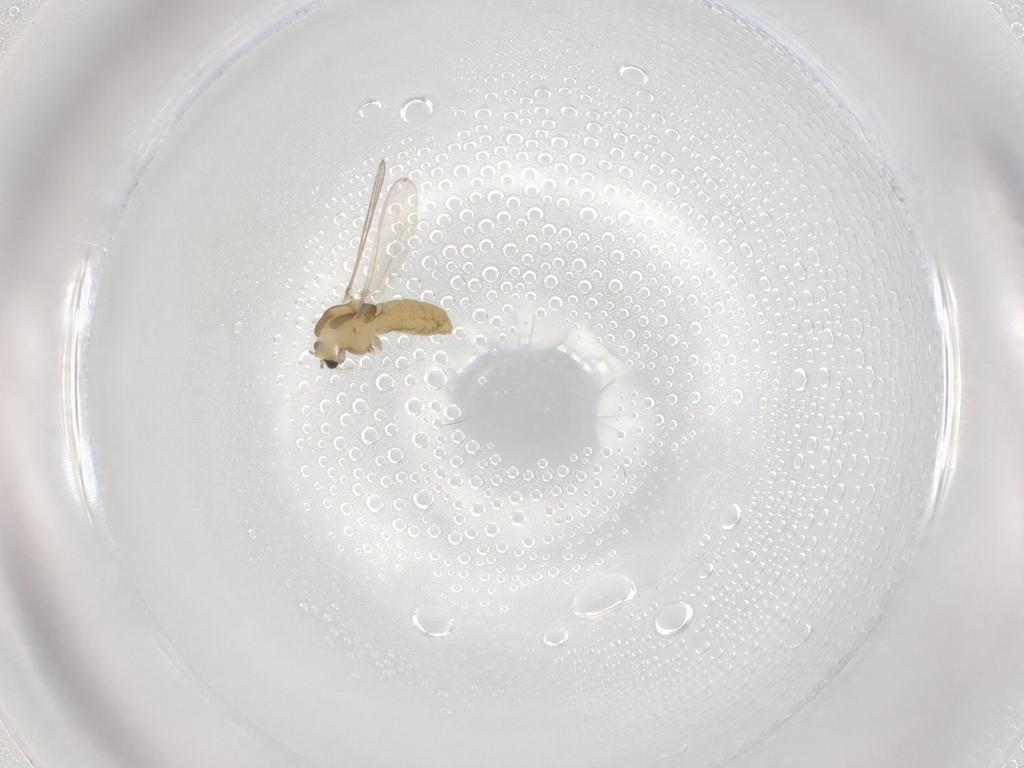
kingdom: Animalia
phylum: Arthropoda
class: Insecta
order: Diptera
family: Chironomidae
